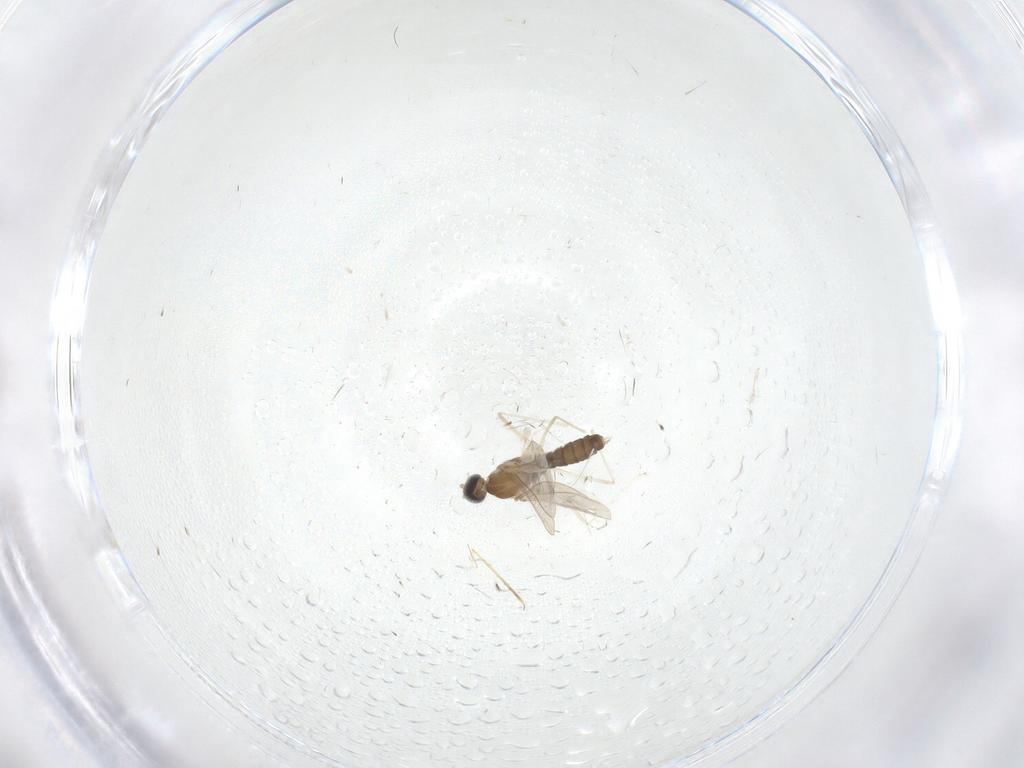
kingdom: Animalia
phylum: Arthropoda
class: Insecta
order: Diptera
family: Cecidomyiidae
